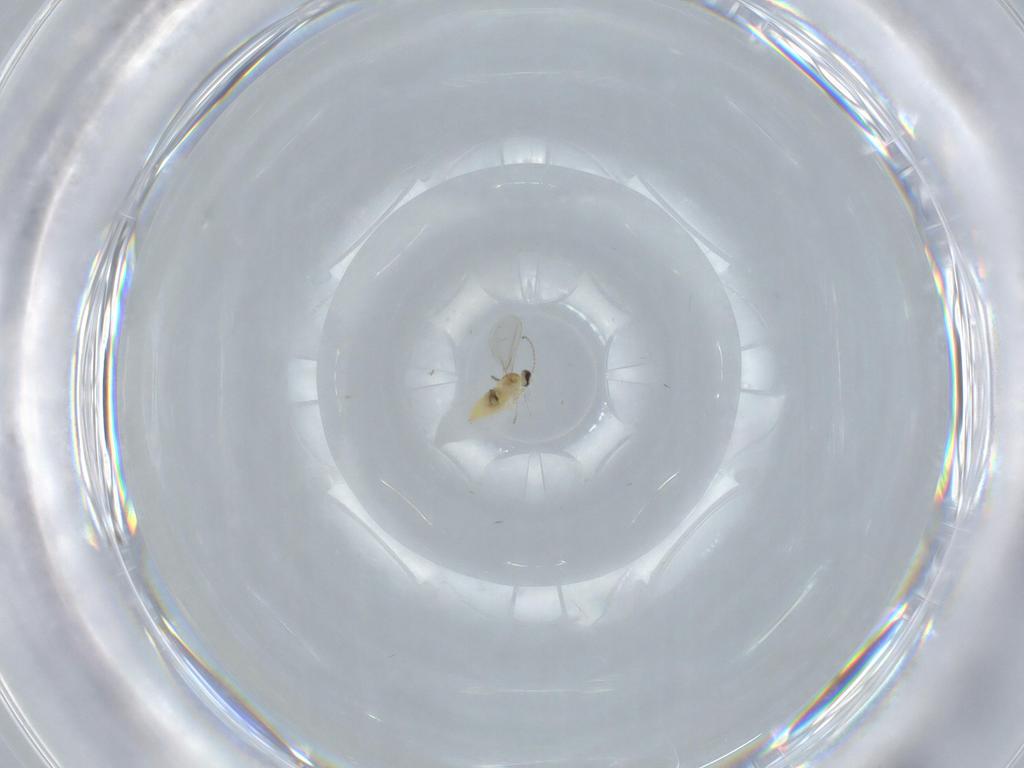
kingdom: Animalia
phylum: Arthropoda
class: Insecta
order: Diptera
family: Cecidomyiidae
